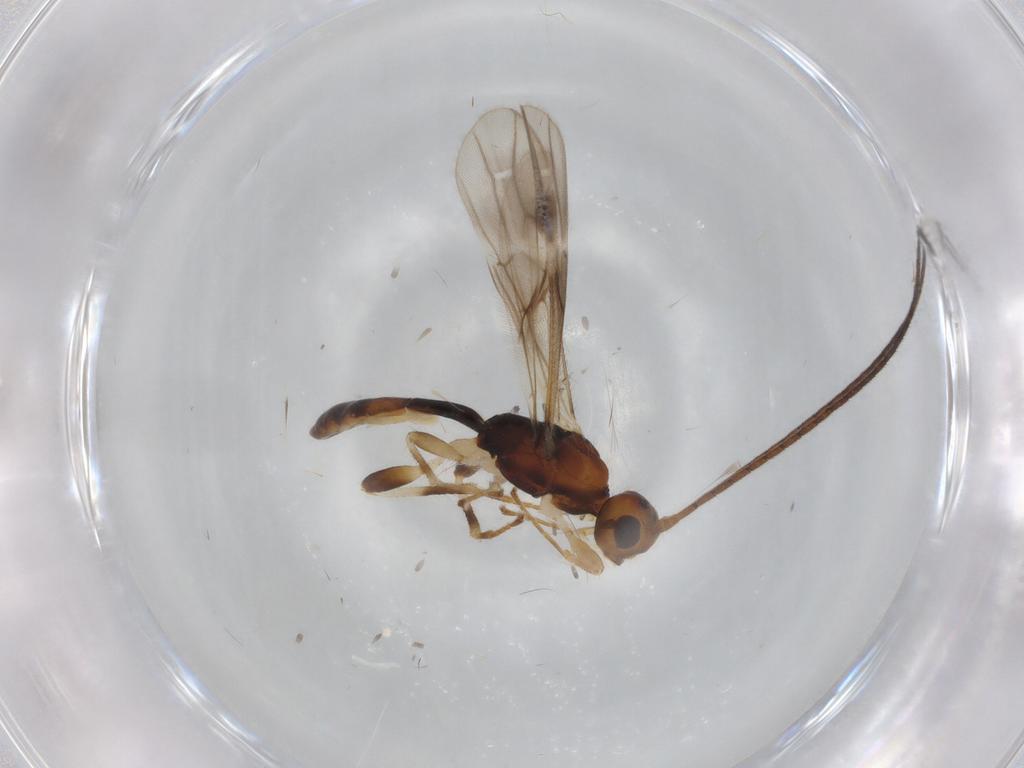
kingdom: Animalia
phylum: Arthropoda
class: Insecta
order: Hymenoptera
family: Braconidae
